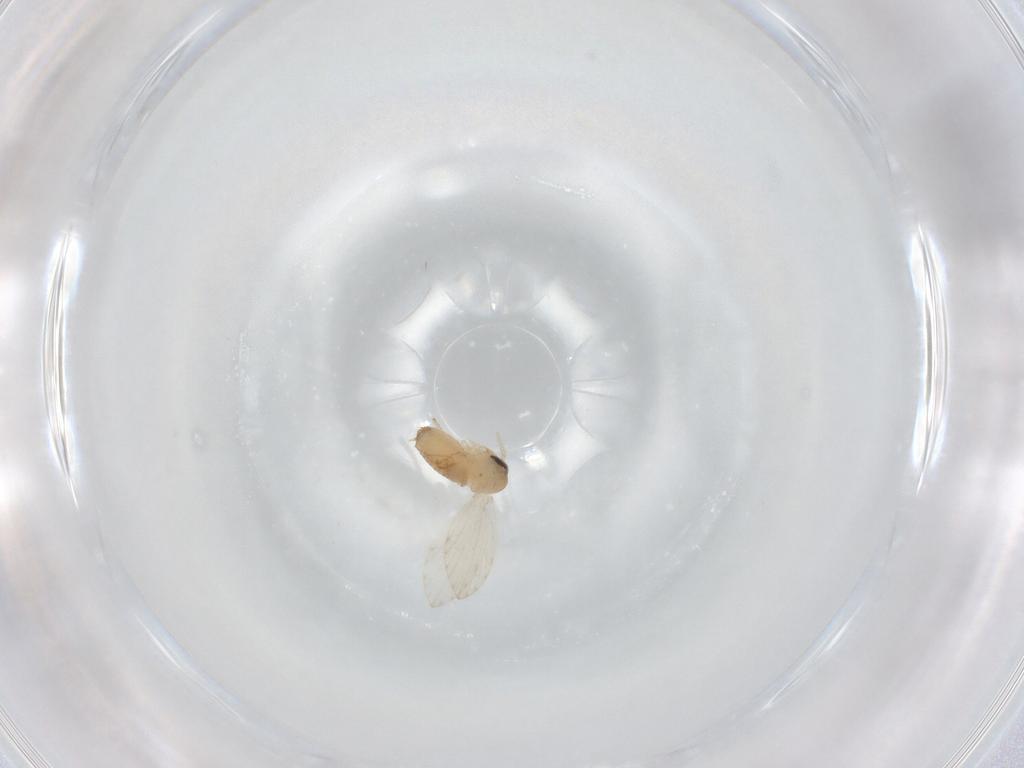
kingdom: Animalia
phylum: Arthropoda
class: Insecta
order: Diptera
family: Psychodidae
